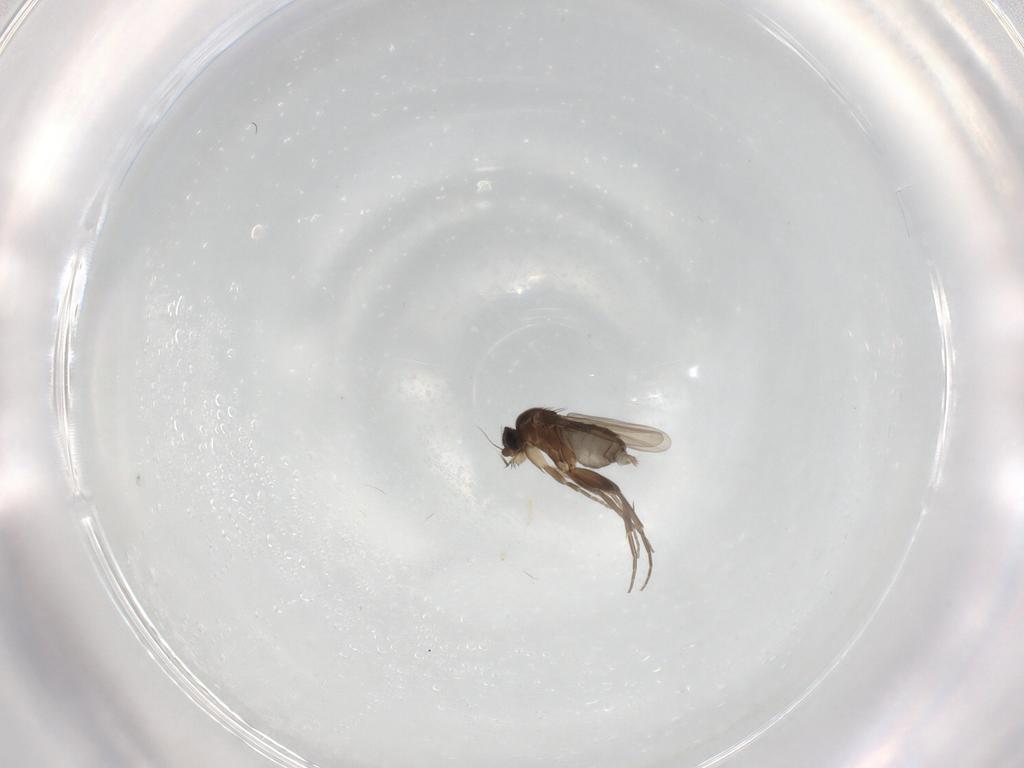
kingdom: Animalia
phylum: Arthropoda
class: Insecta
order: Diptera
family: Phoridae
